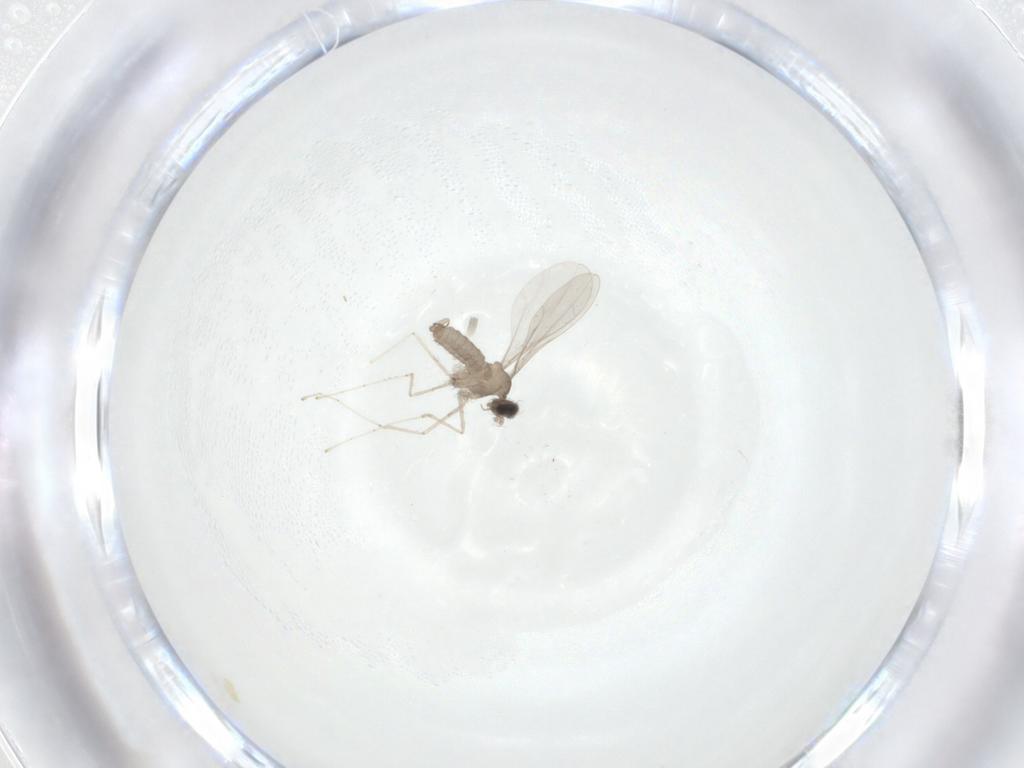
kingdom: Animalia
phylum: Arthropoda
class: Insecta
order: Diptera
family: Cecidomyiidae
